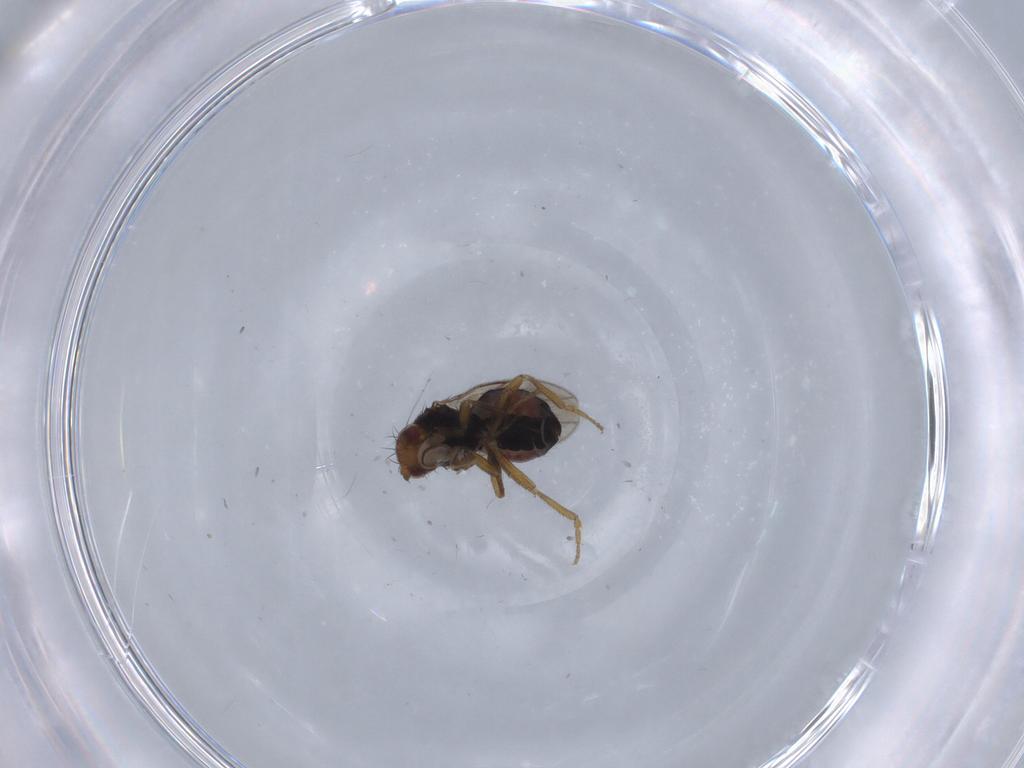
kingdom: Animalia
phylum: Arthropoda
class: Insecta
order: Diptera
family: Sphaeroceridae
